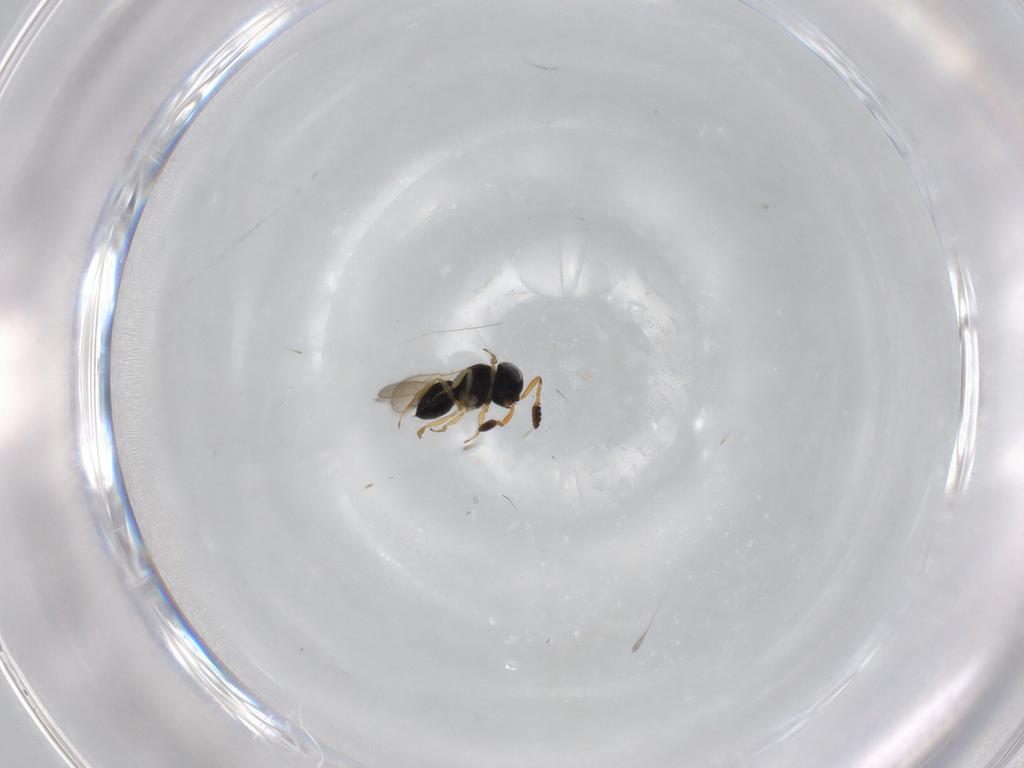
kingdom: Animalia
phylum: Arthropoda
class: Insecta
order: Hymenoptera
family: Scelionidae
